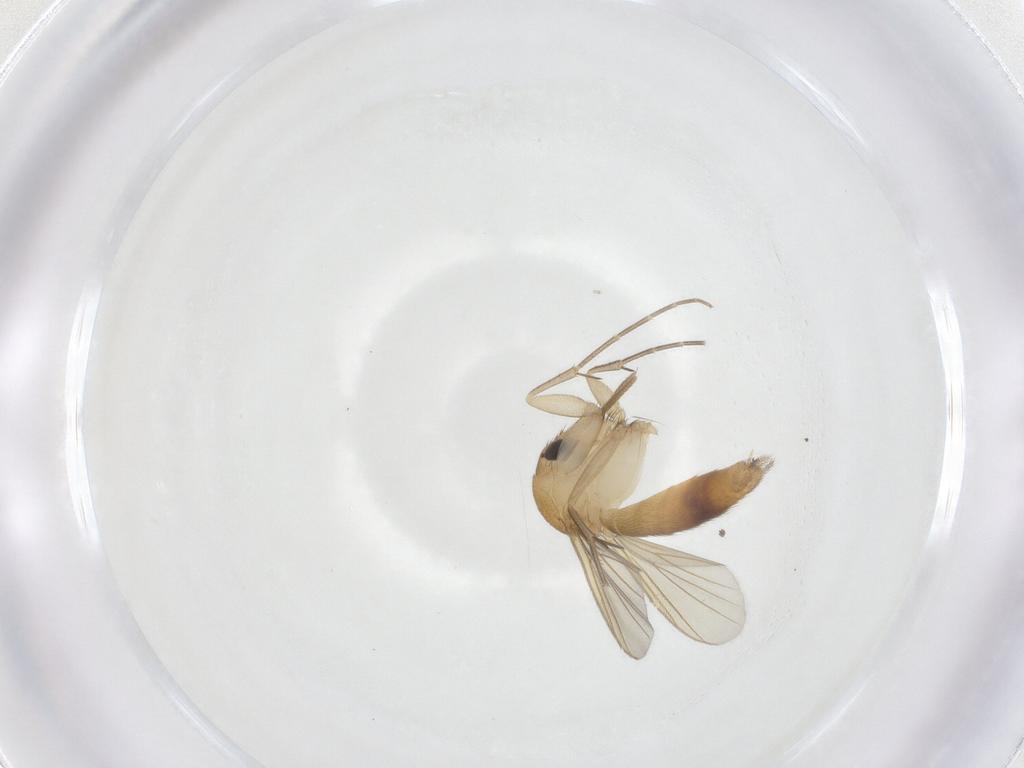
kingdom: Animalia
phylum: Arthropoda
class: Insecta
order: Diptera
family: Mycetophilidae
